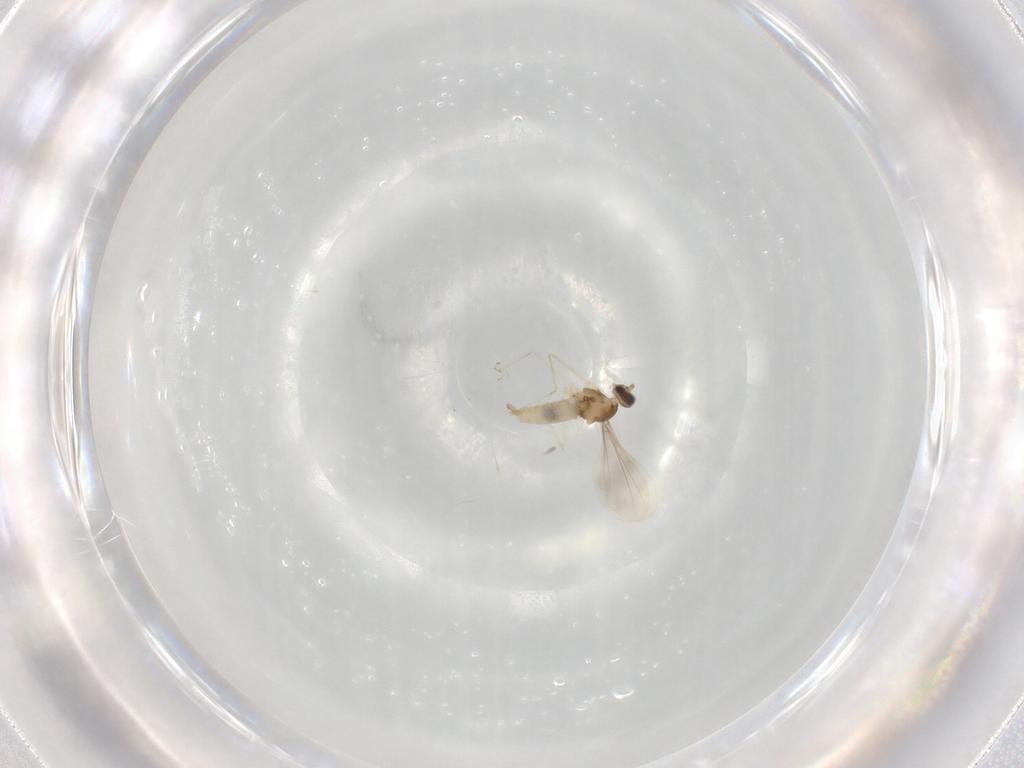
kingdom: Animalia
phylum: Arthropoda
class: Insecta
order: Diptera
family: Cecidomyiidae
